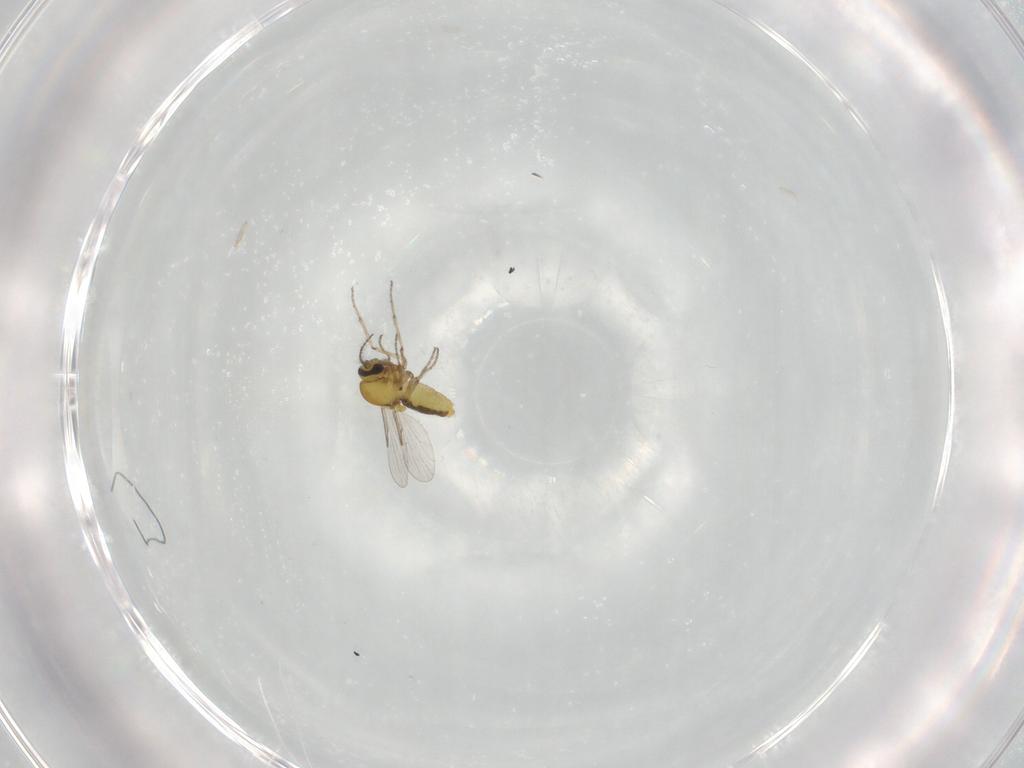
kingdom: Animalia
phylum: Arthropoda
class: Insecta
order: Diptera
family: Ceratopogonidae
